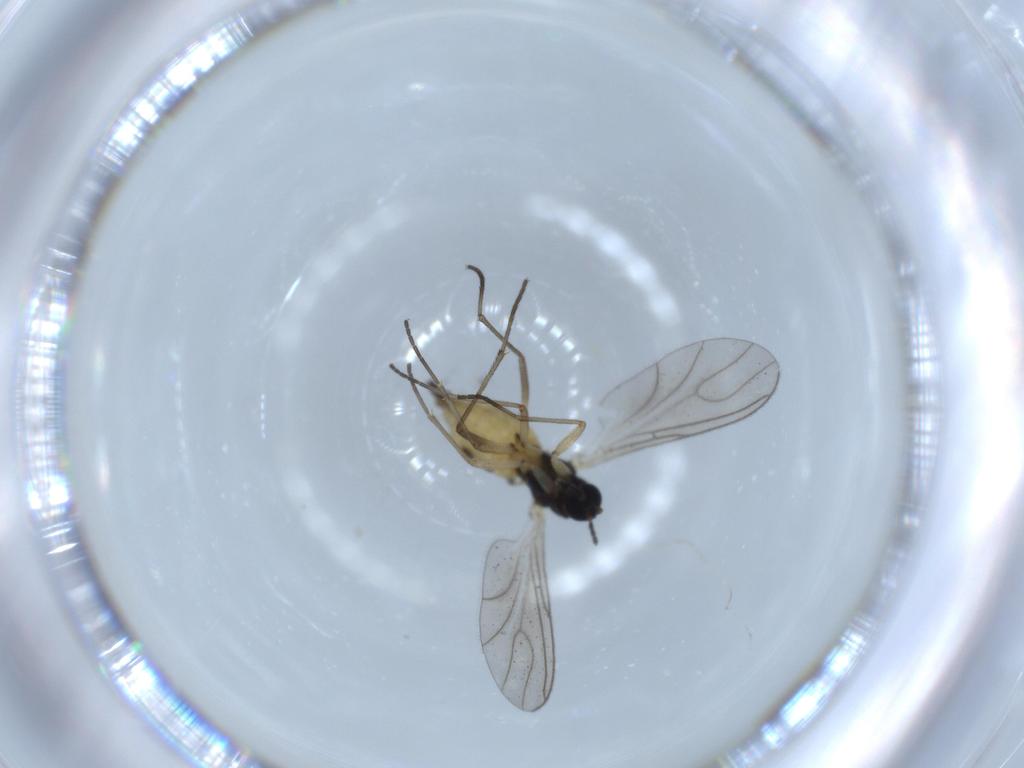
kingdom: Animalia
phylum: Arthropoda
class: Insecta
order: Diptera
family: Sciaridae
